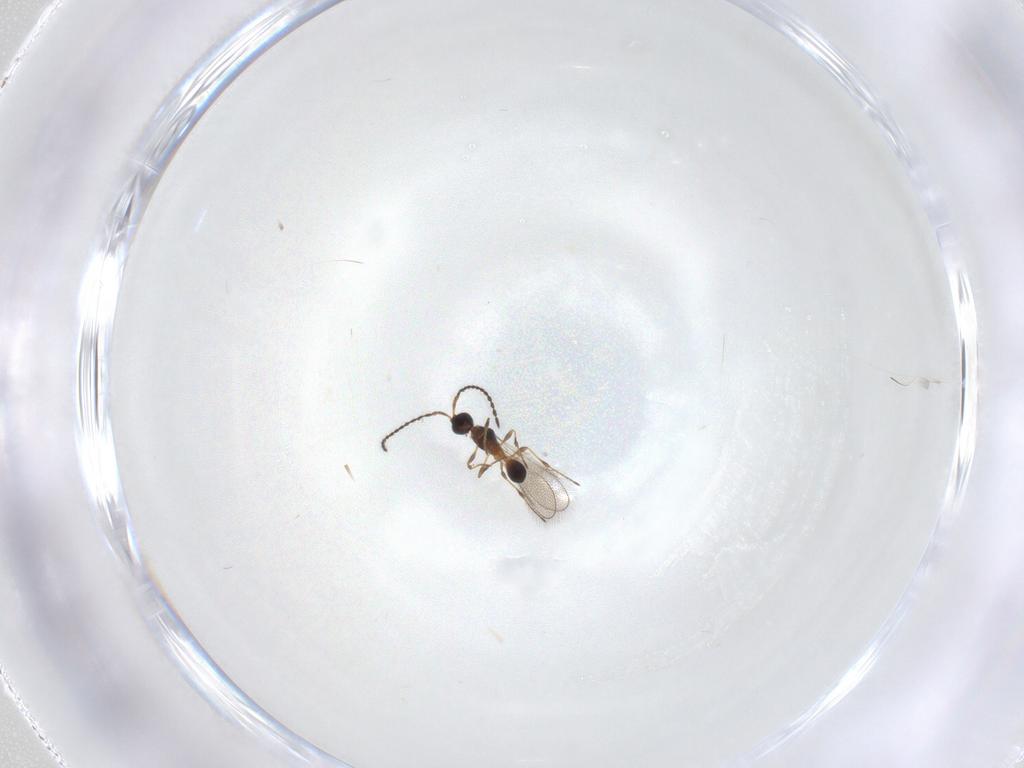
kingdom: Animalia
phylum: Arthropoda
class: Insecta
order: Hymenoptera
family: Diapriidae
